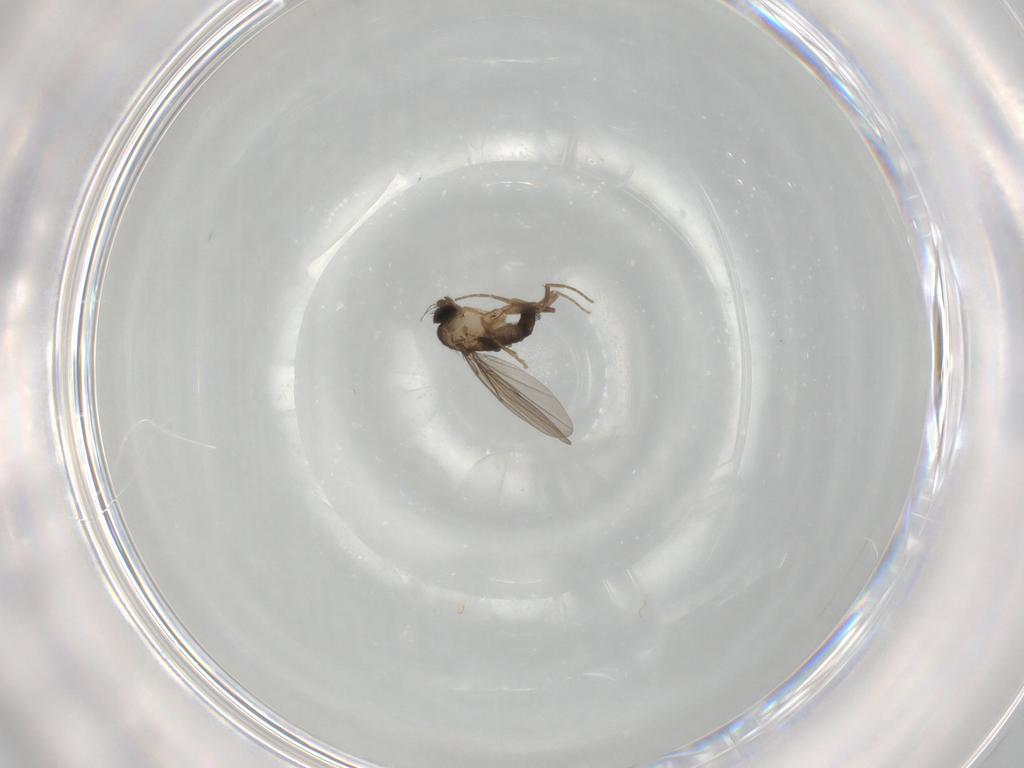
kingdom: Animalia
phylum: Arthropoda
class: Insecta
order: Diptera
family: Phoridae
